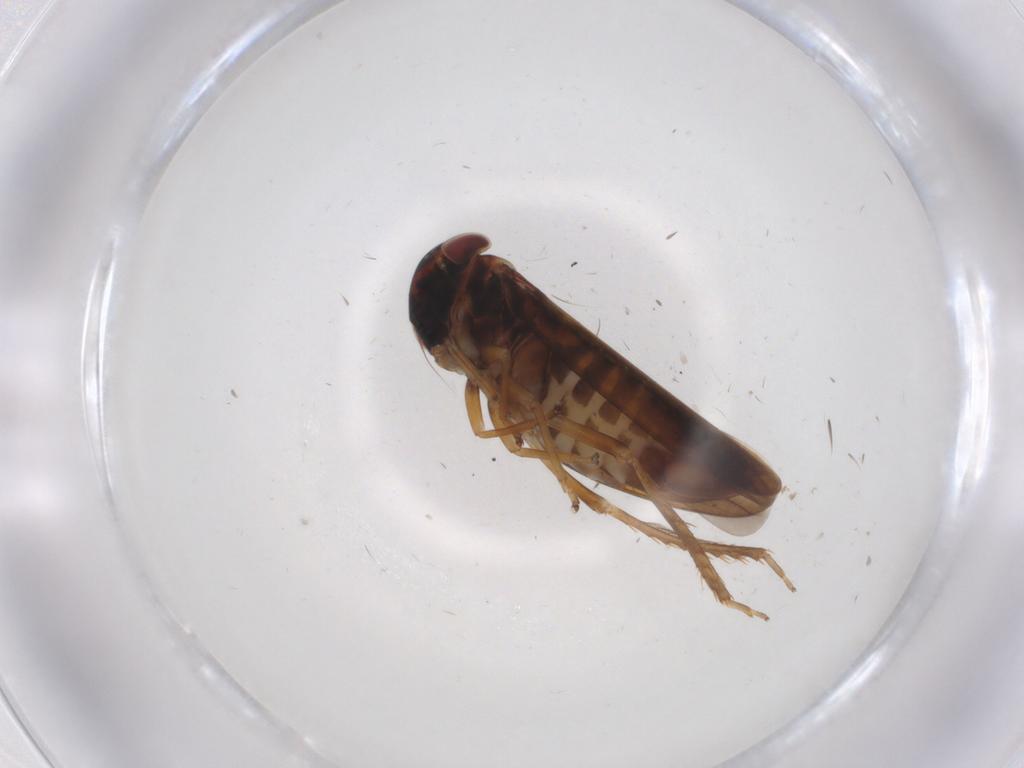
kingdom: Animalia
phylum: Arthropoda
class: Insecta
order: Hemiptera
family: Cicadellidae
